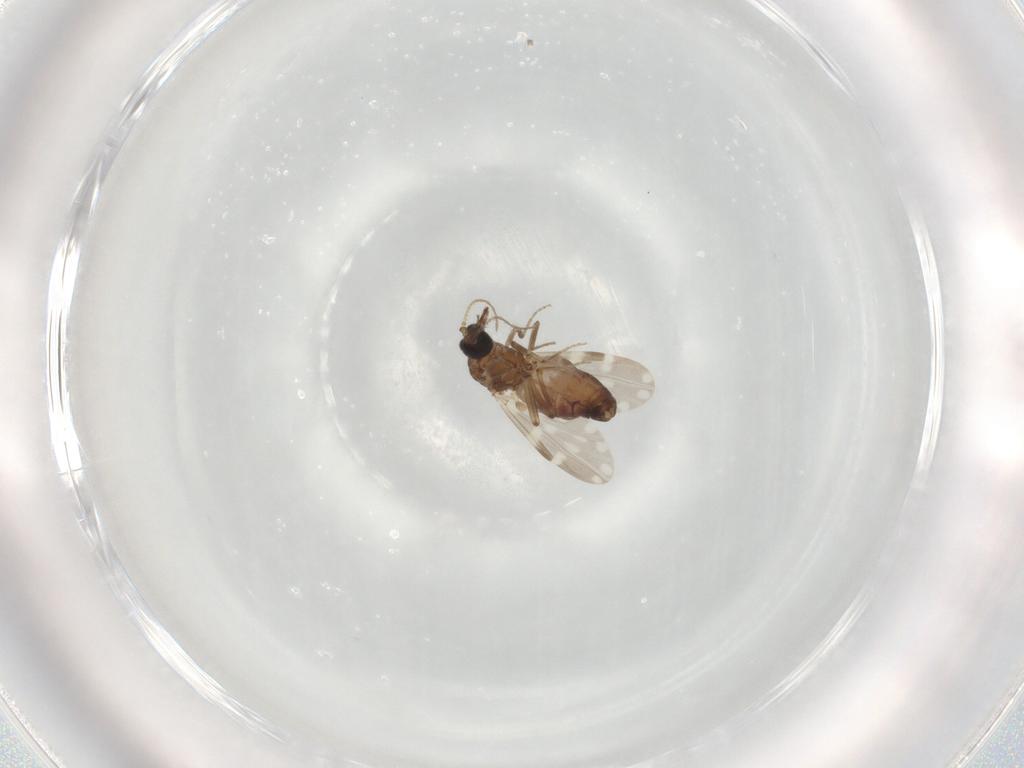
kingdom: Animalia
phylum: Arthropoda
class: Insecta
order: Diptera
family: Ceratopogonidae
